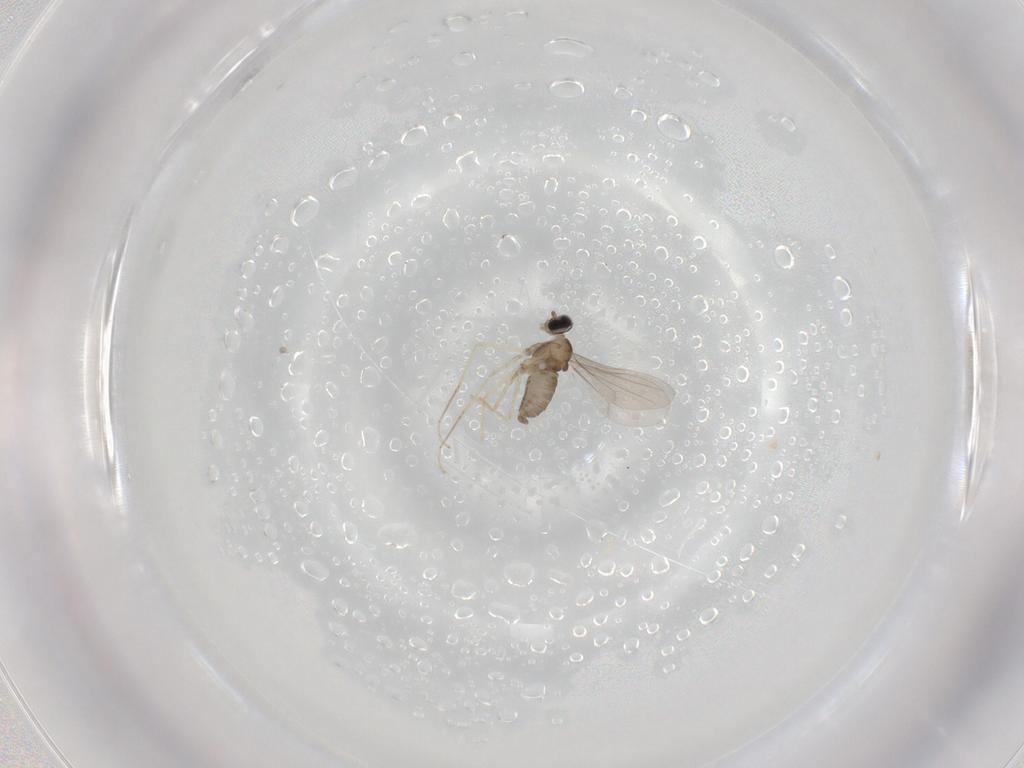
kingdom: Animalia
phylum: Arthropoda
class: Insecta
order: Diptera
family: Cecidomyiidae
